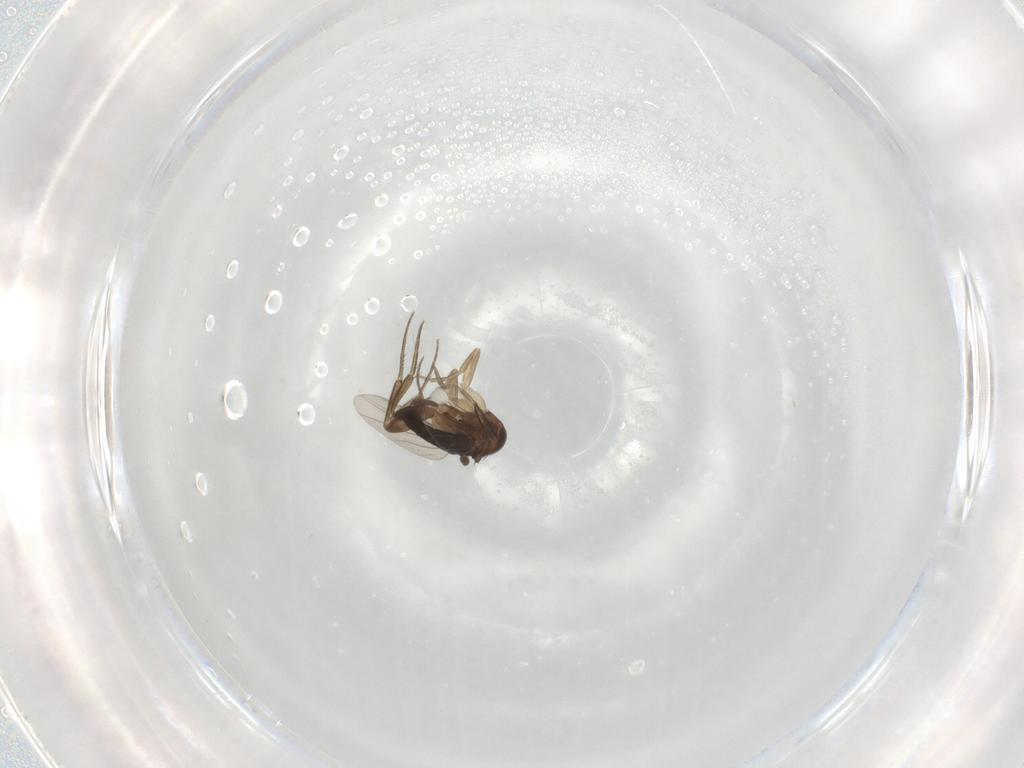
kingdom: Animalia
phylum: Arthropoda
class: Insecta
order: Diptera
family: Phoridae
